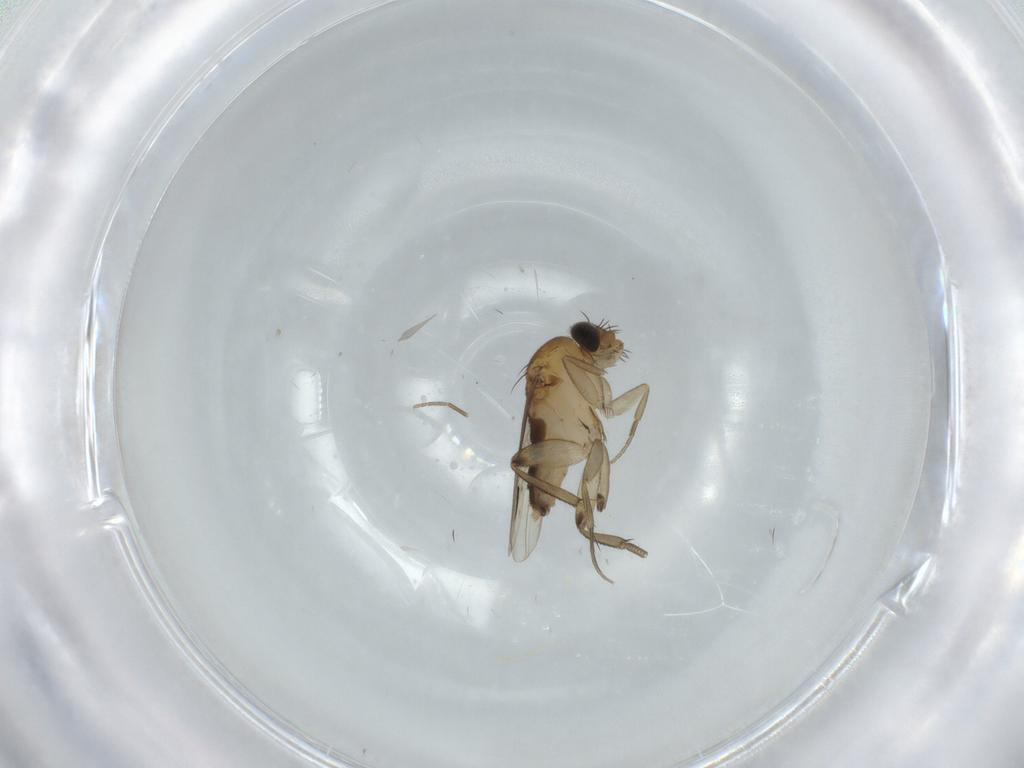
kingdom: Animalia
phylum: Arthropoda
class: Insecta
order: Diptera
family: Phoridae
